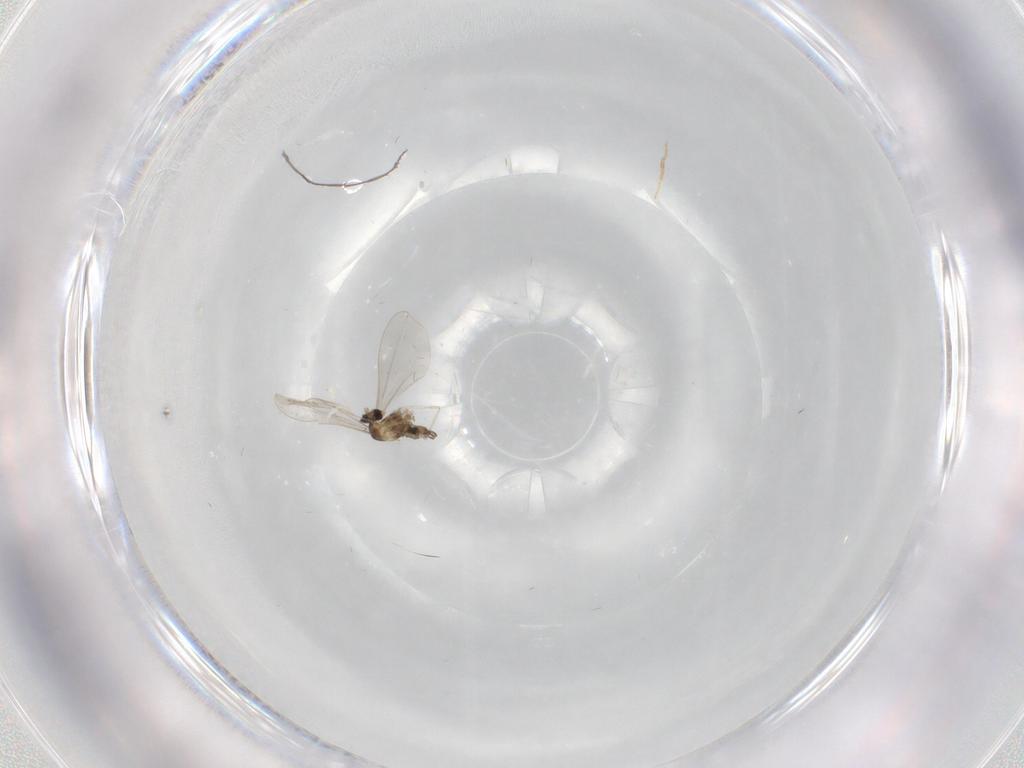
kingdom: Animalia
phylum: Arthropoda
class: Insecta
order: Diptera
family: Cecidomyiidae
